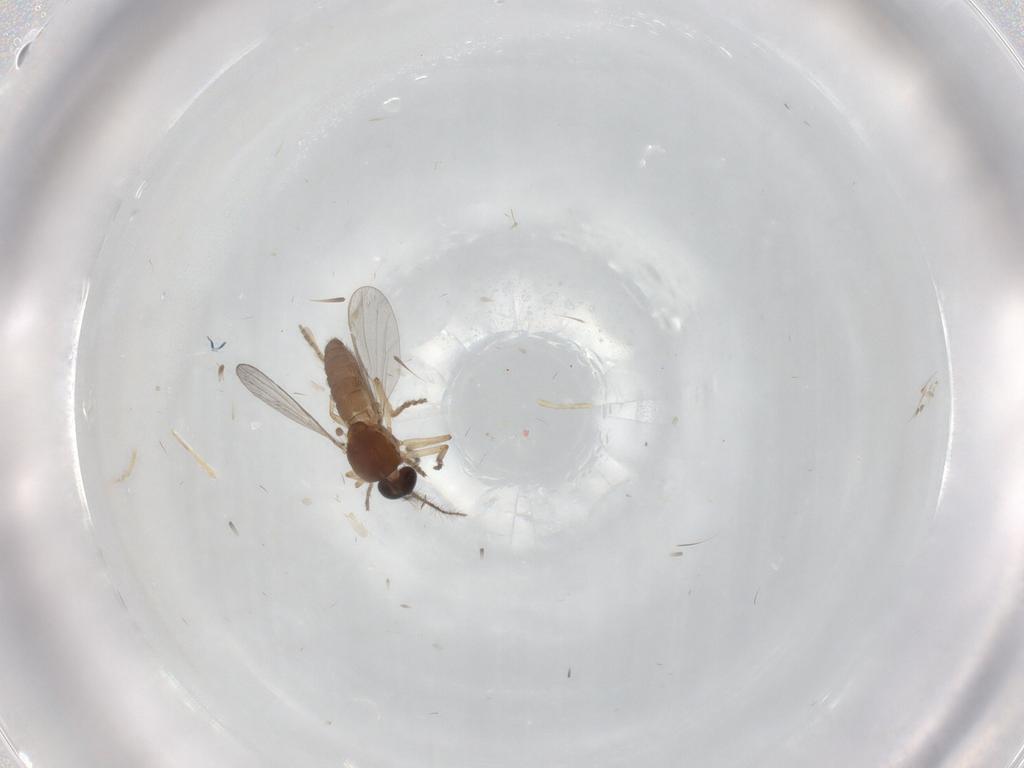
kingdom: Animalia
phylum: Arthropoda
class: Insecta
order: Diptera
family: Ceratopogonidae
